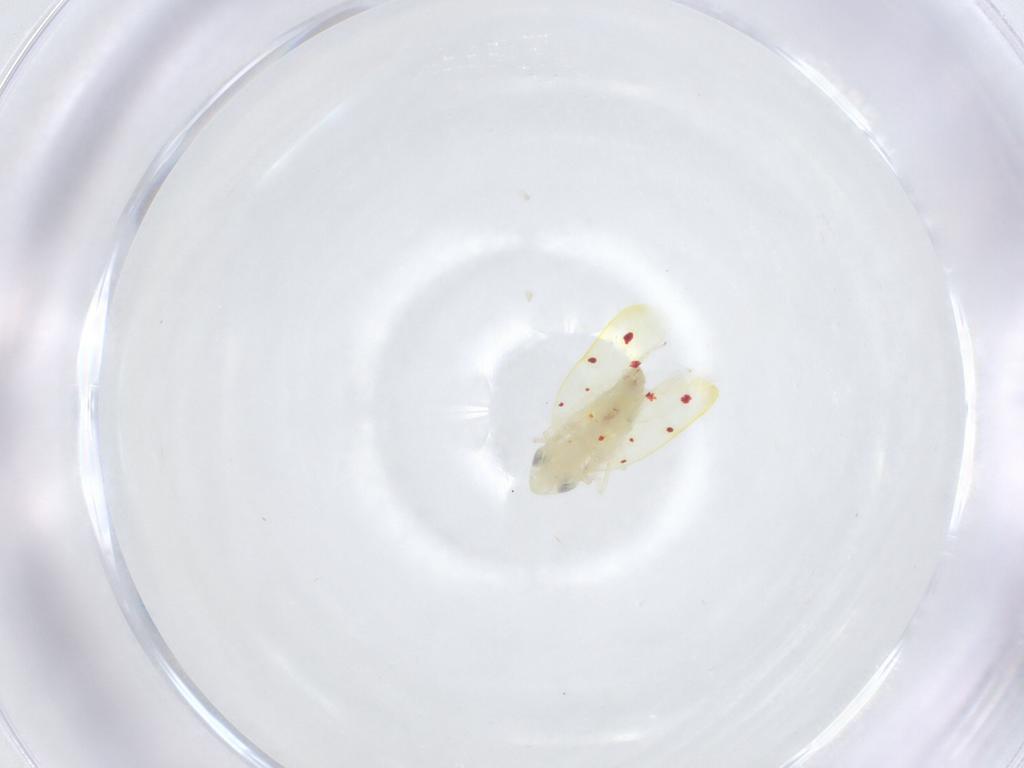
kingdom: Animalia
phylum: Arthropoda
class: Insecta
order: Hemiptera
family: Cicadellidae
